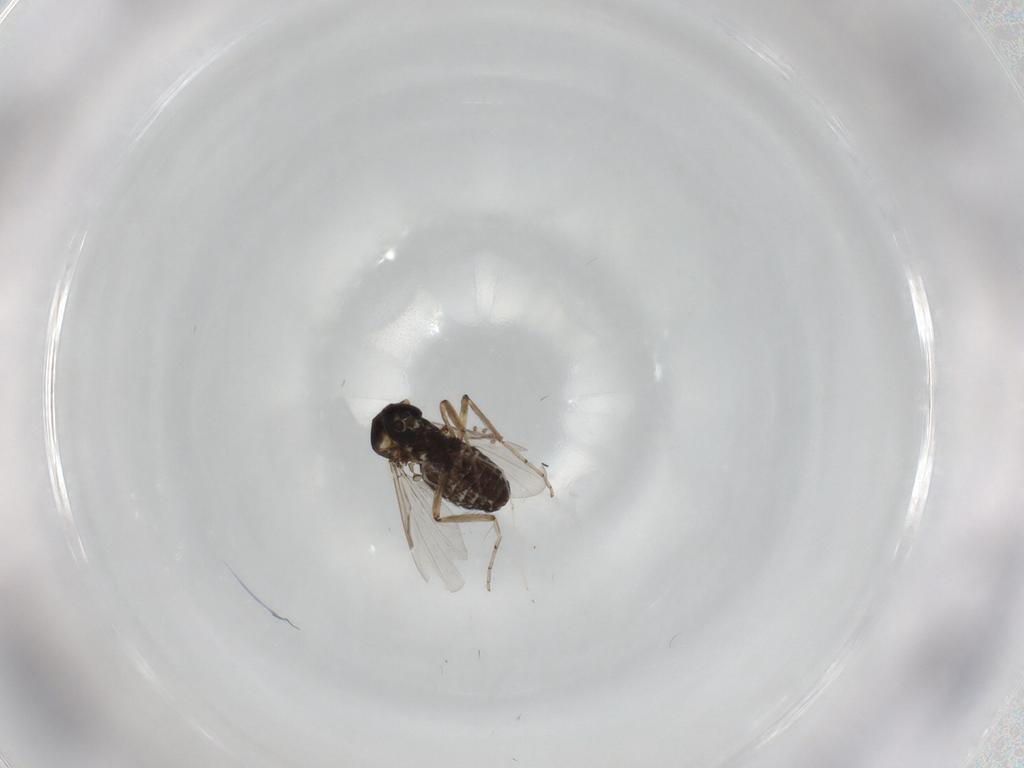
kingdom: Animalia
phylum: Arthropoda
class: Insecta
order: Diptera
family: Ceratopogonidae
